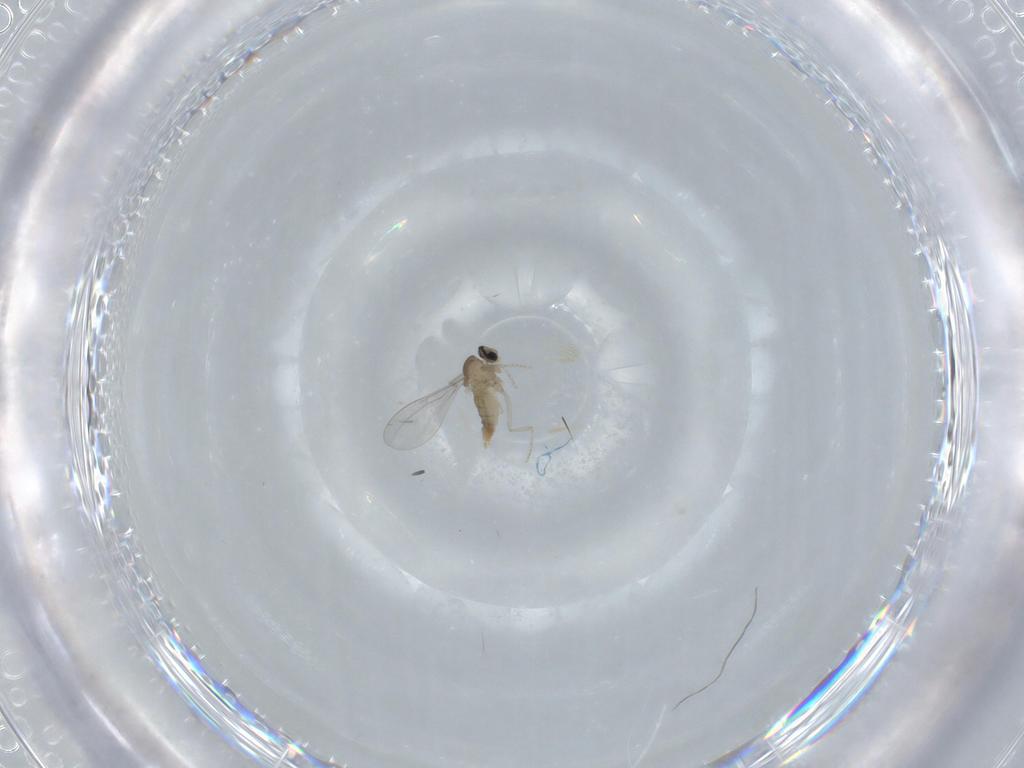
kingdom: Animalia
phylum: Arthropoda
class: Insecta
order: Diptera
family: Cecidomyiidae
